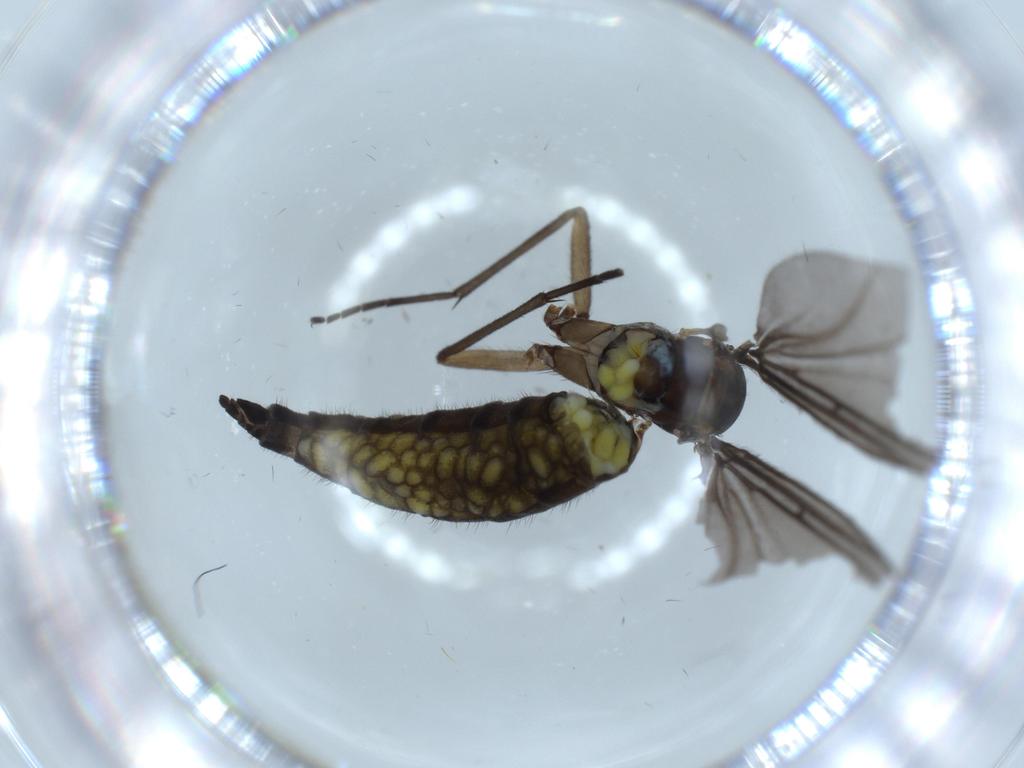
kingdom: Animalia
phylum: Arthropoda
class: Insecta
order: Diptera
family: Sciaridae
